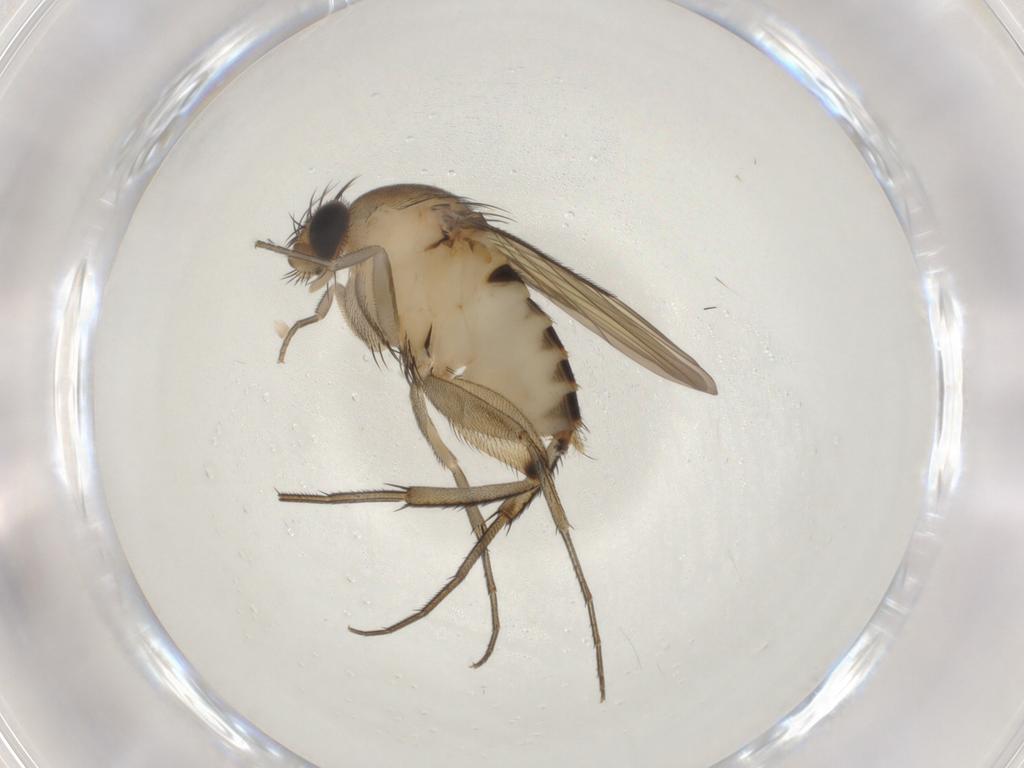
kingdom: Animalia
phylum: Arthropoda
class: Insecta
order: Diptera
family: Phoridae
